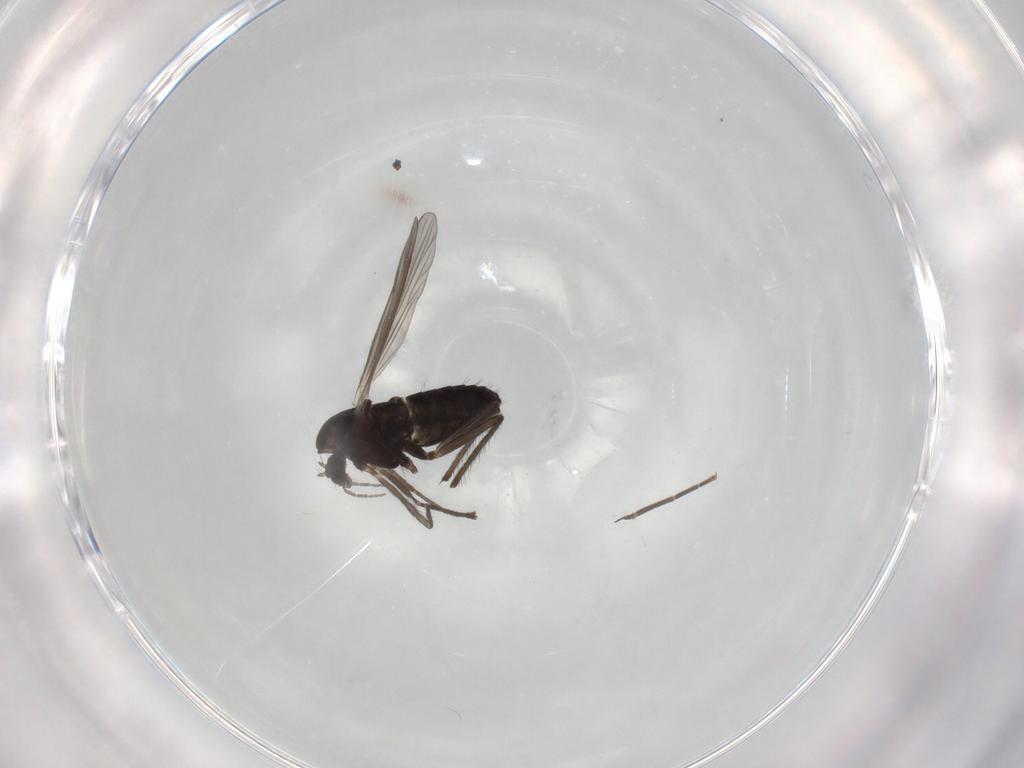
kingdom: Animalia
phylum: Arthropoda
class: Insecta
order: Diptera
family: Chironomidae
